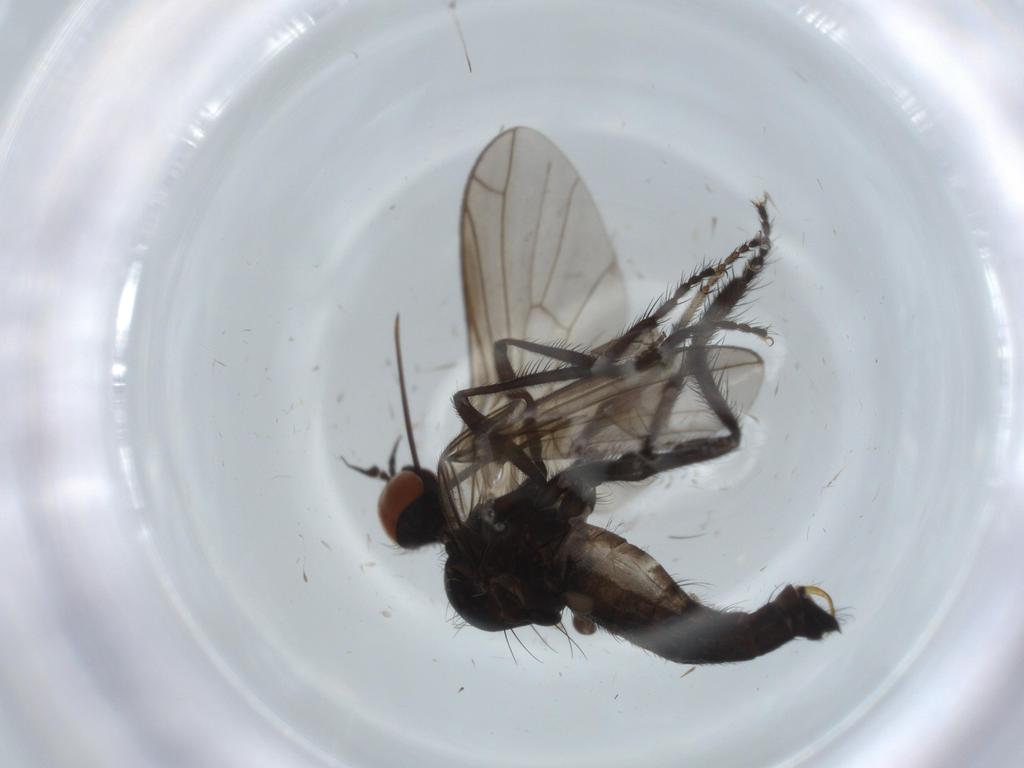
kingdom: Animalia
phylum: Arthropoda
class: Insecta
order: Diptera
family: Empididae
